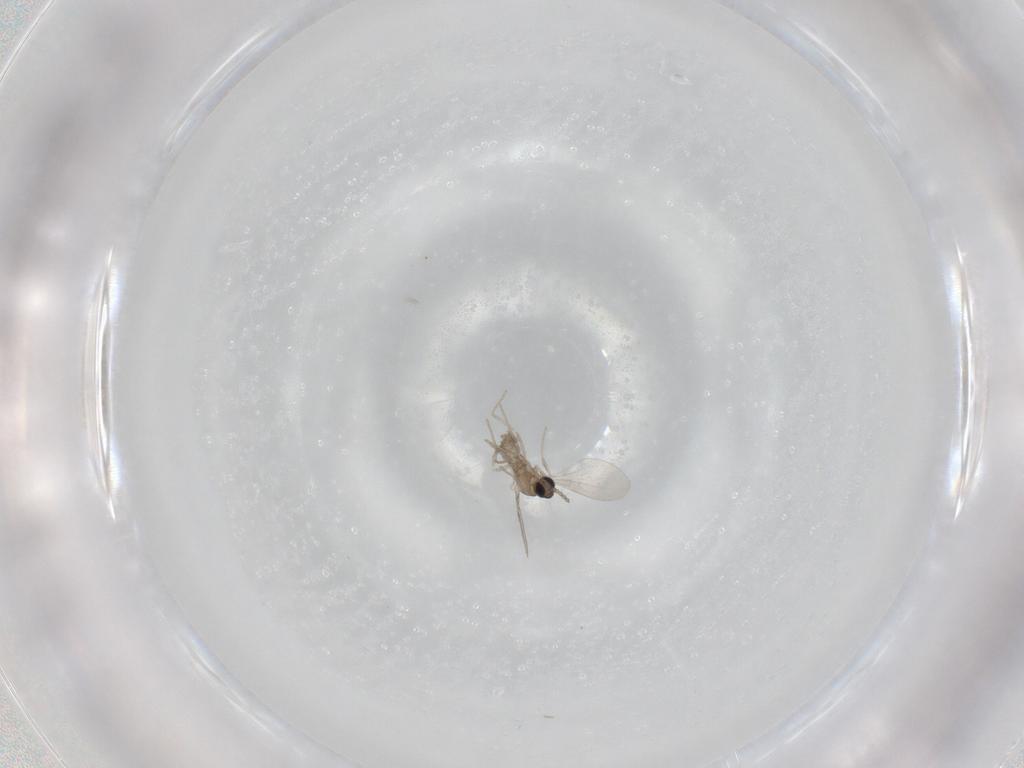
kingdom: Animalia
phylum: Arthropoda
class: Insecta
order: Diptera
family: Cecidomyiidae
